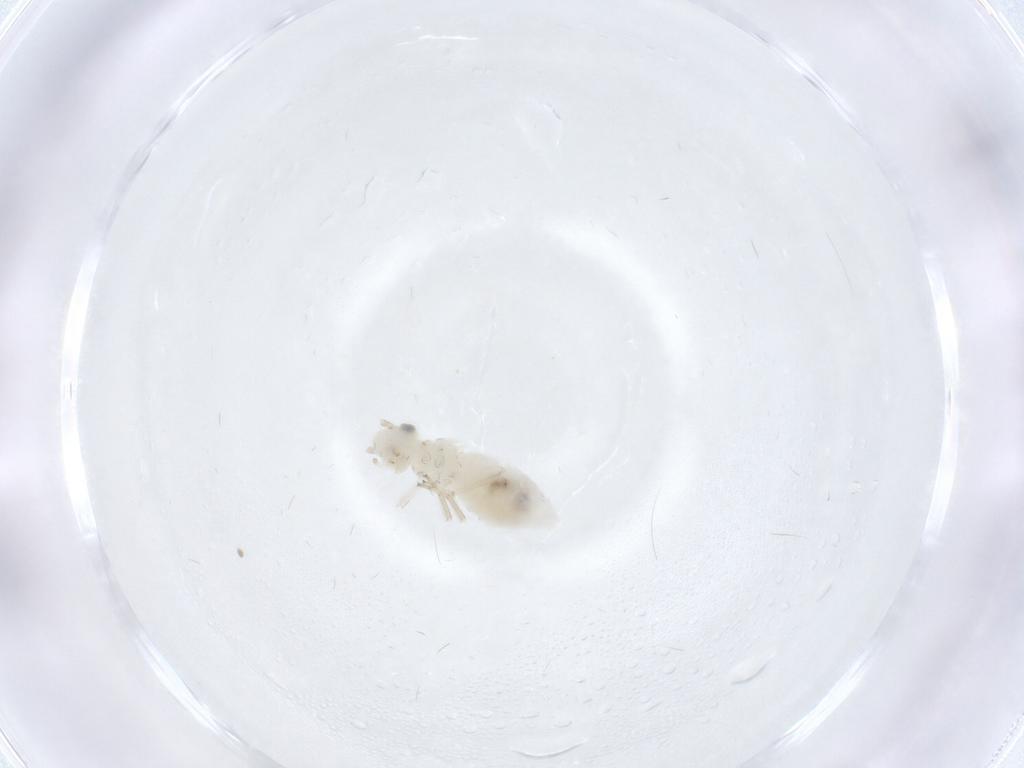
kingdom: Animalia
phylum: Arthropoda
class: Insecta
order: Psocodea
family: Caeciliusidae
